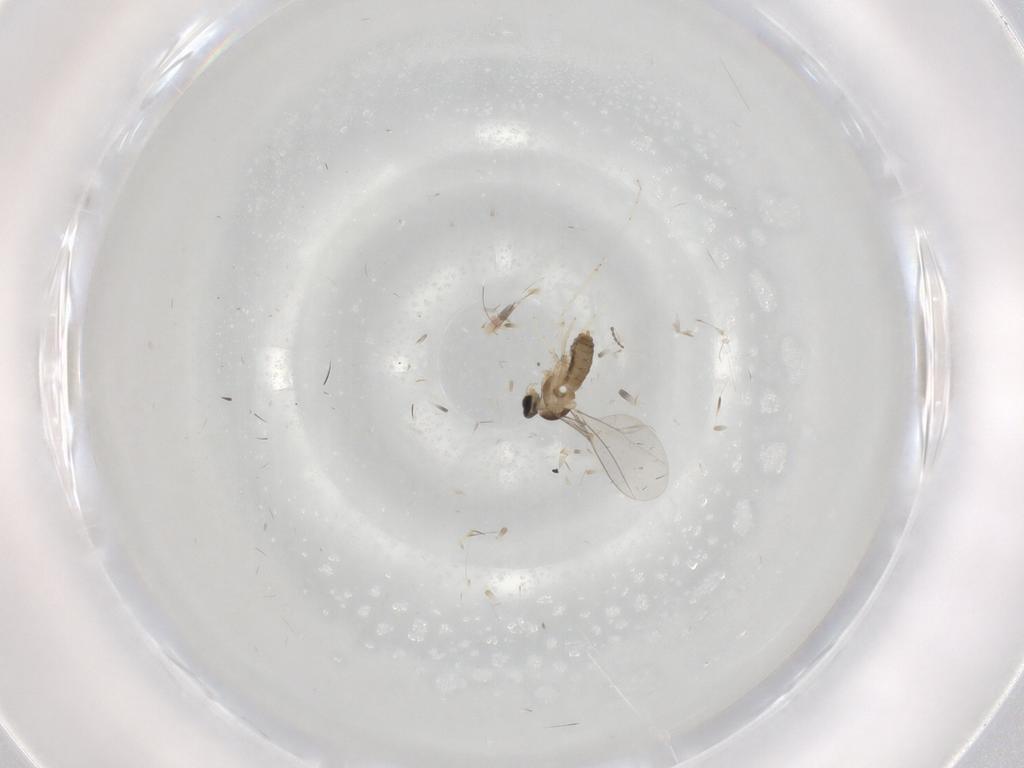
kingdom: Animalia
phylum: Arthropoda
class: Insecta
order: Diptera
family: Cecidomyiidae
